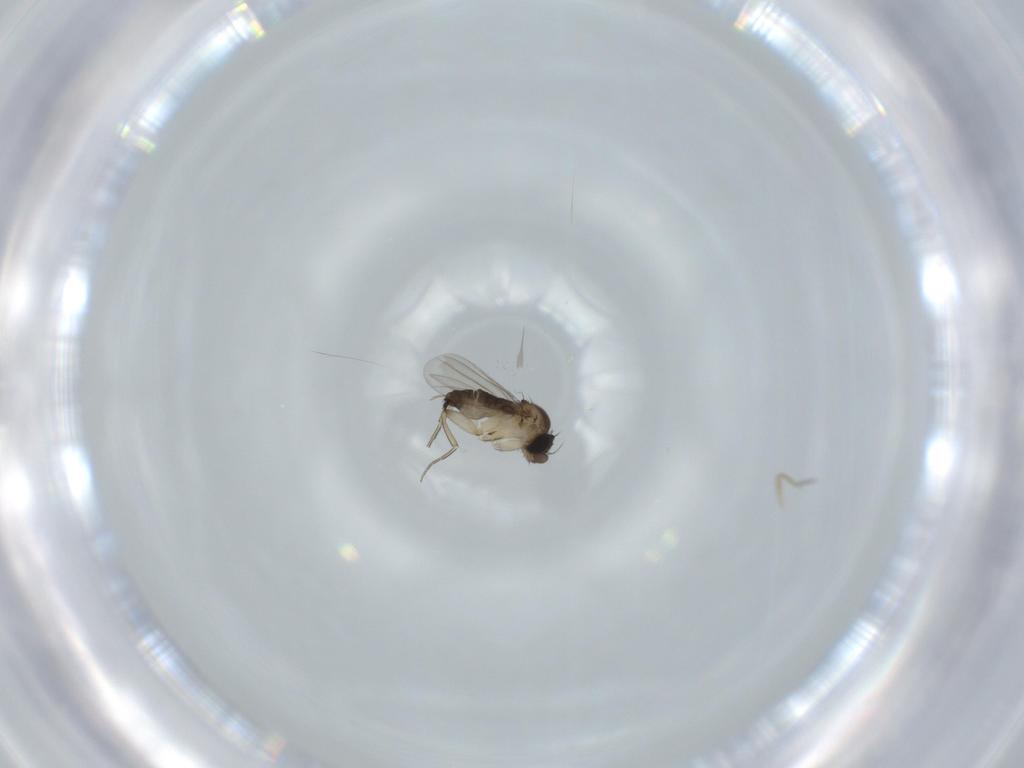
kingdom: Animalia
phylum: Arthropoda
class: Insecta
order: Diptera
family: Phoridae
